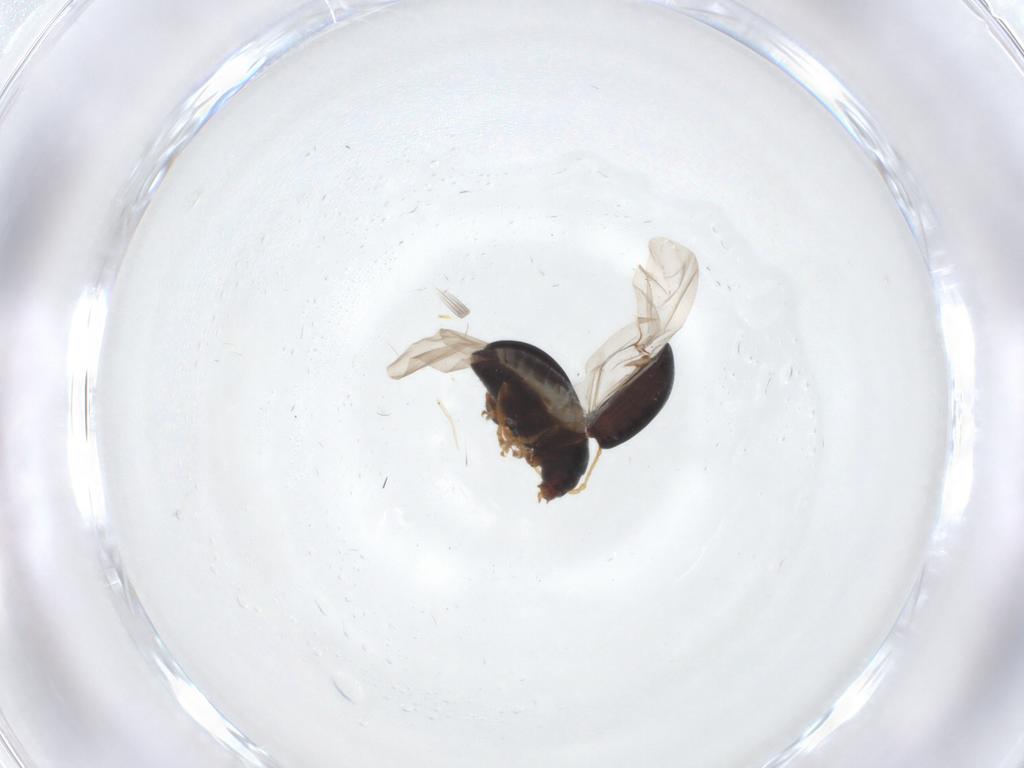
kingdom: Animalia
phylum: Arthropoda
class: Insecta
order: Coleoptera
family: Chrysomelidae
